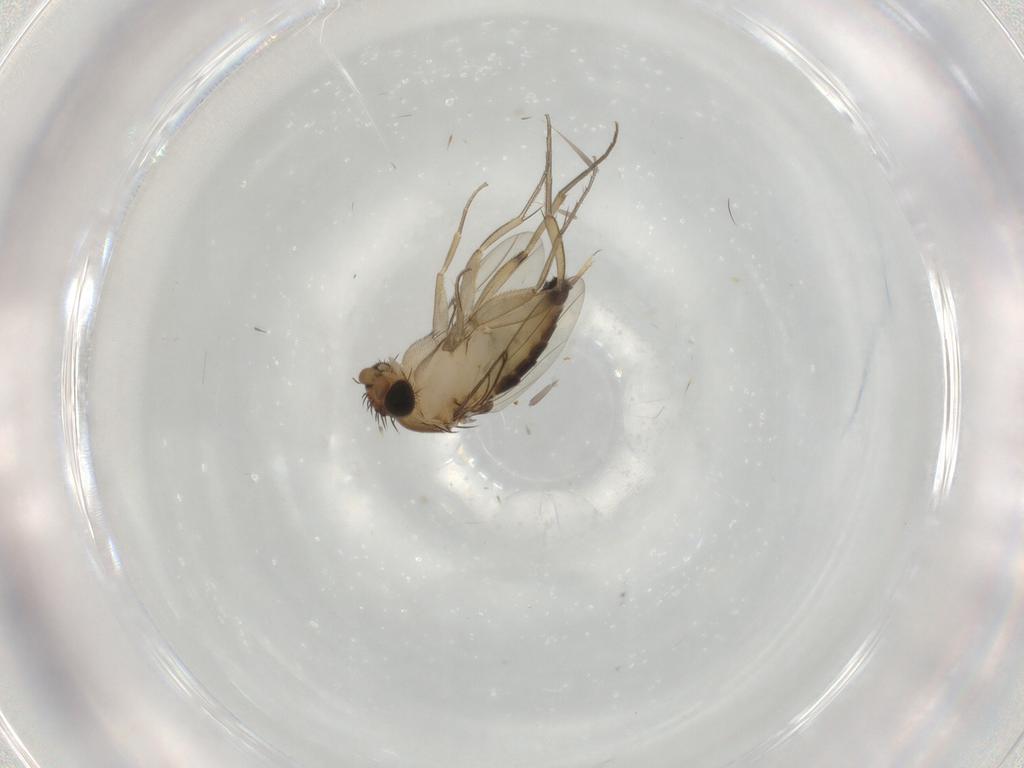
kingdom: Animalia
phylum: Arthropoda
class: Insecta
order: Diptera
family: Phoridae
